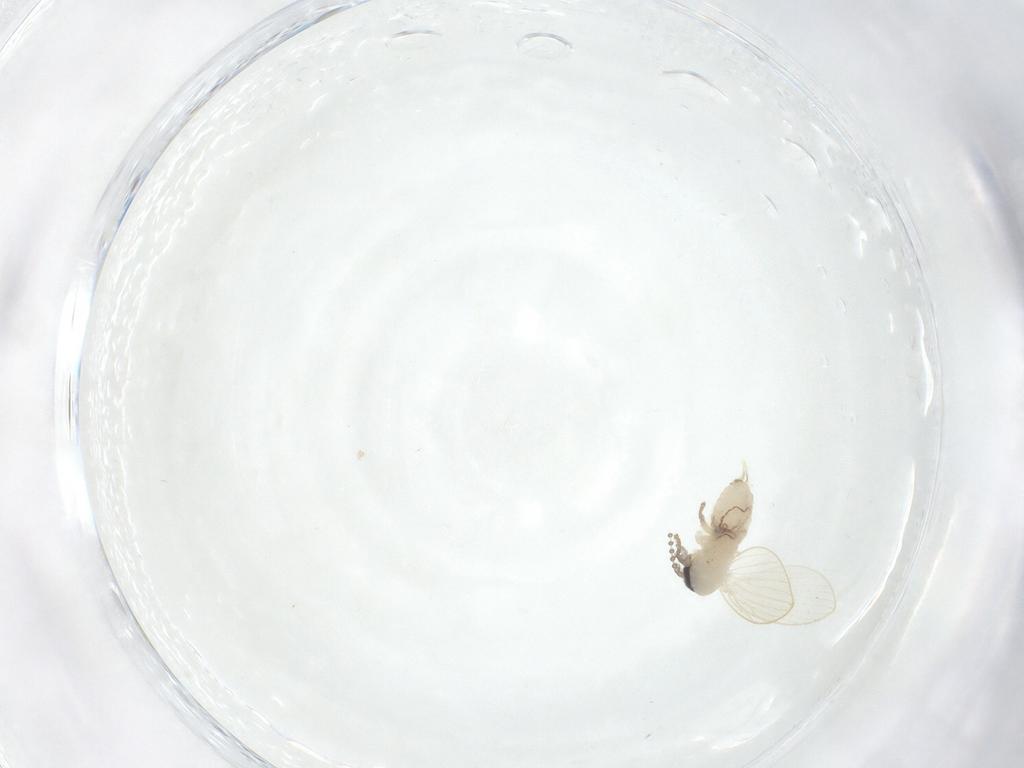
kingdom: Animalia
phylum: Arthropoda
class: Insecta
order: Diptera
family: Psychodidae
